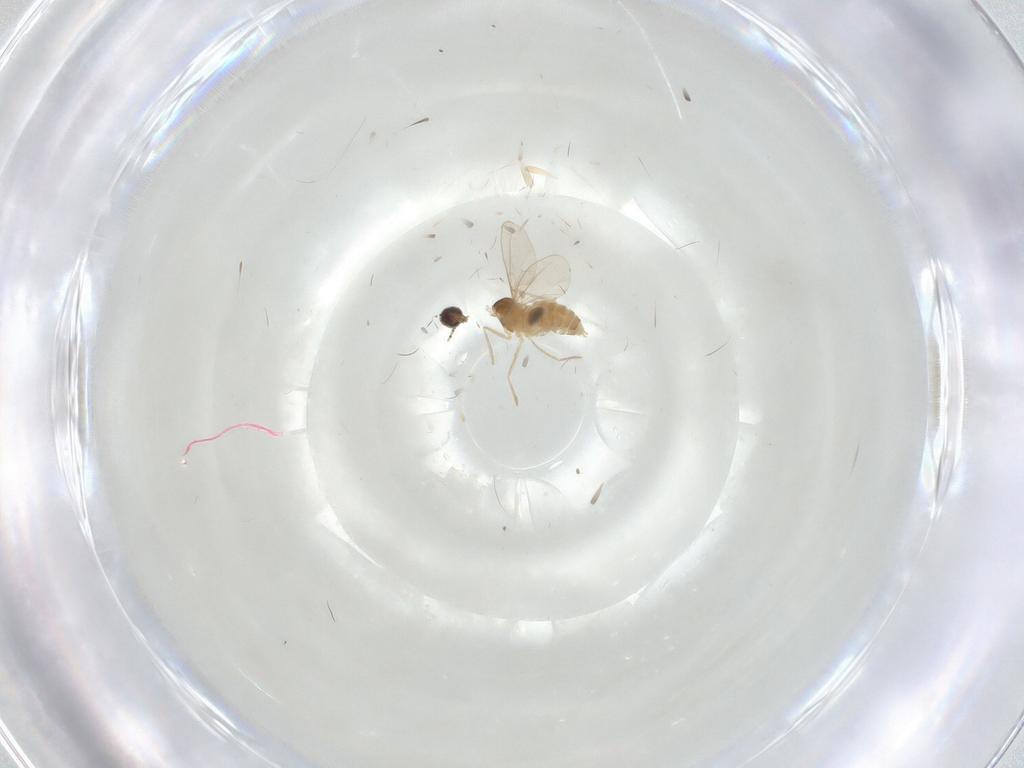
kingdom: Animalia
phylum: Arthropoda
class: Insecta
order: Diptera
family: Cecidomyiidae
